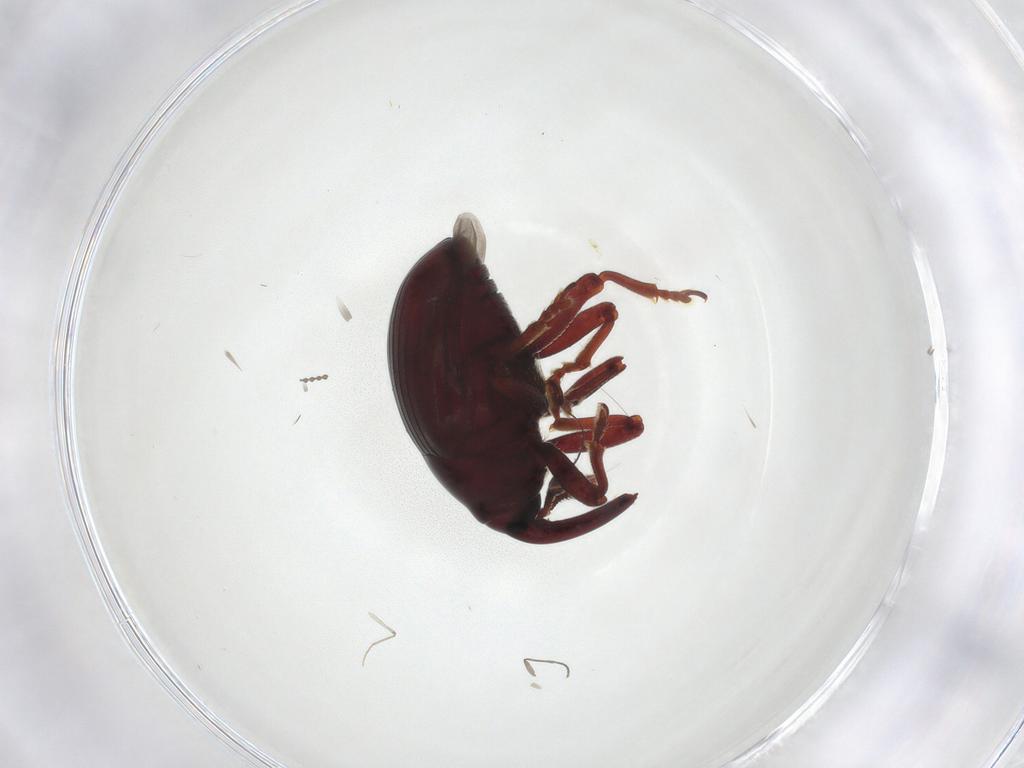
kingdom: Animalia
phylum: Arthropoda
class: Insecta
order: Coleoptera
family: Curculionidae
